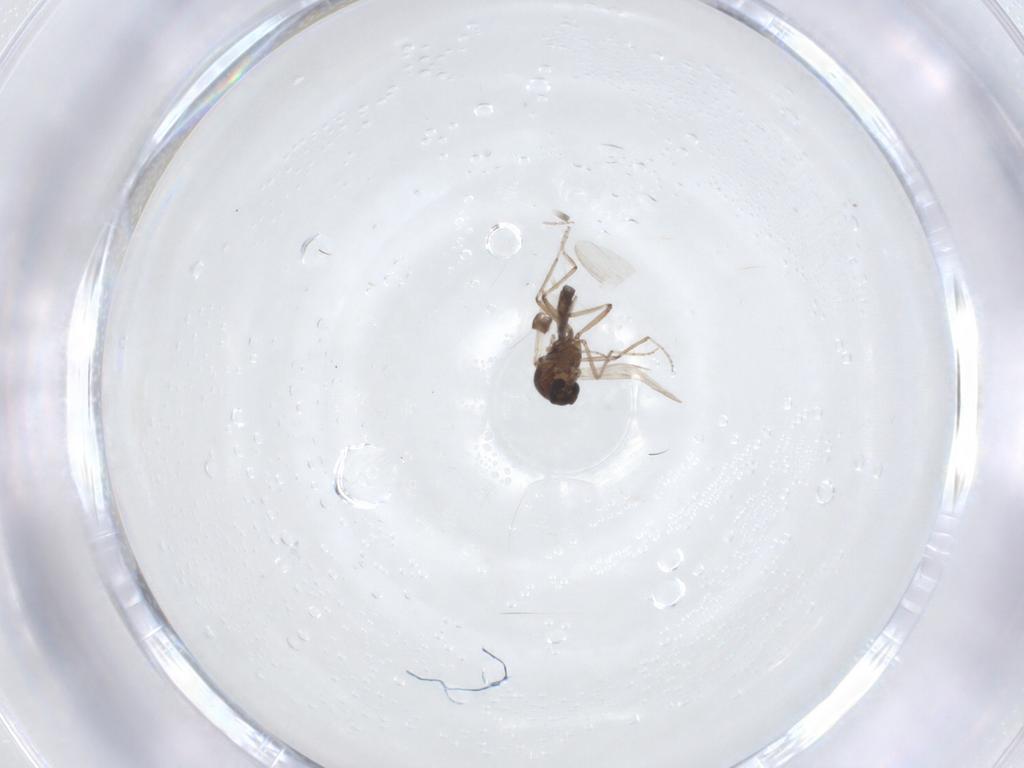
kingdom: Animalia
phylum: Arthropoda
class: Insecta
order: Diptera
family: Ceratopogonidae
